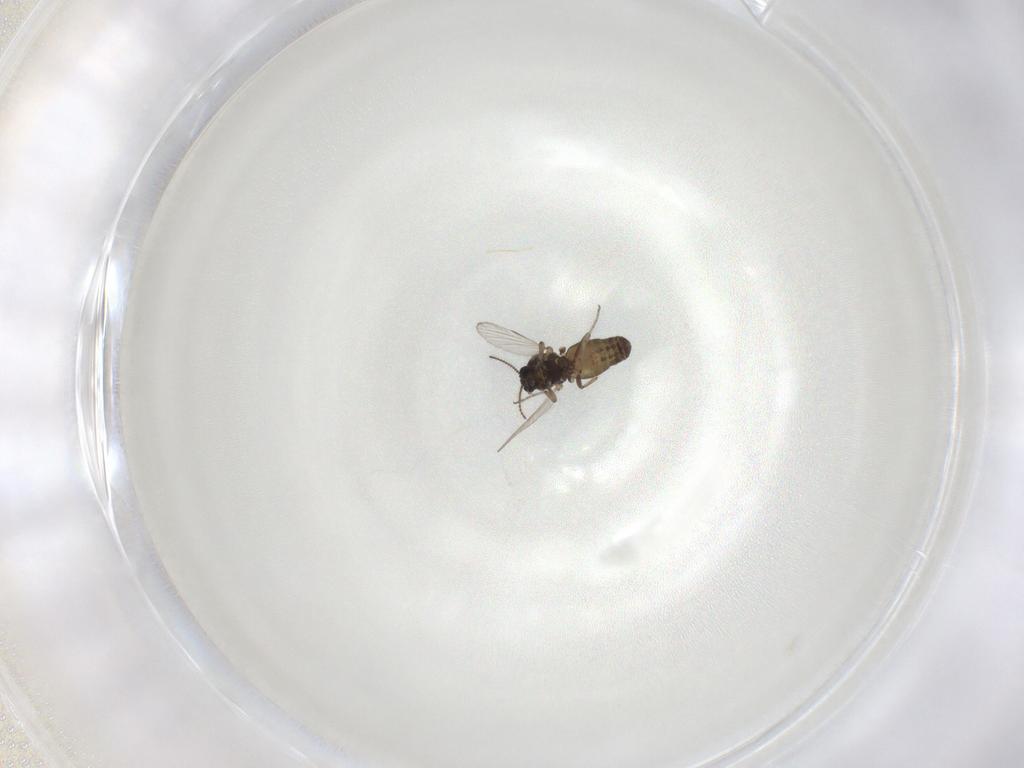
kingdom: Animalia
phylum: Arthropoda
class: Insecta
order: Diptera
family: Ceratopogonidae
